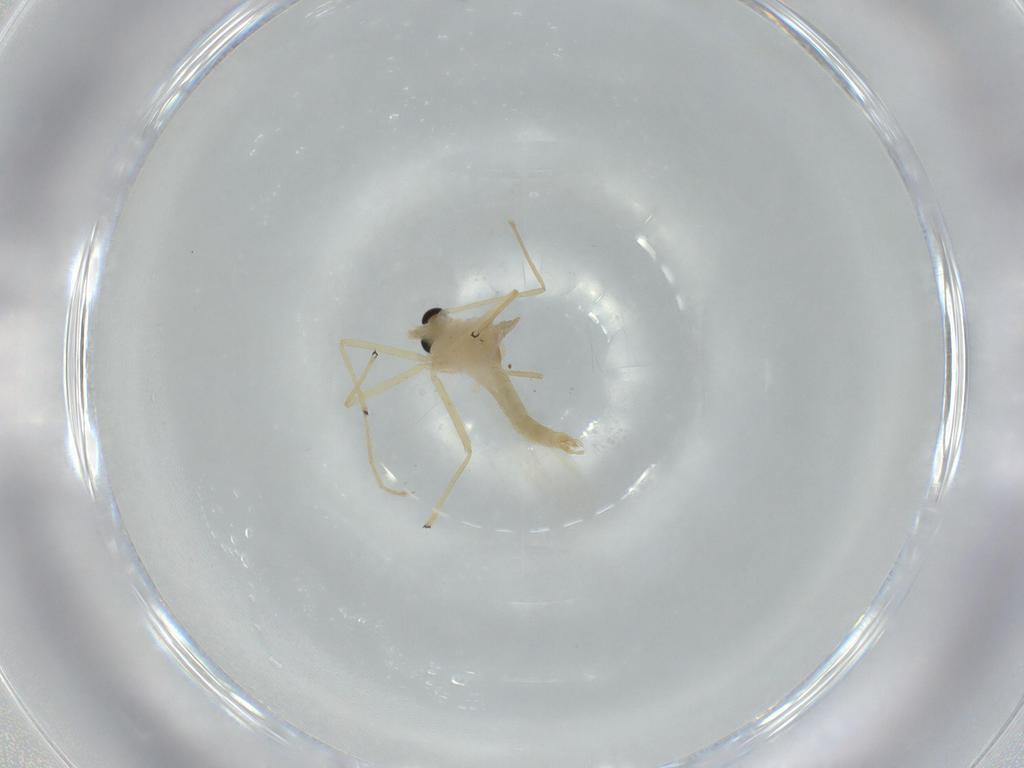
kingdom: Animalia
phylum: Arthropoda
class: Insecta
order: Diptera
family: Chironomidae
